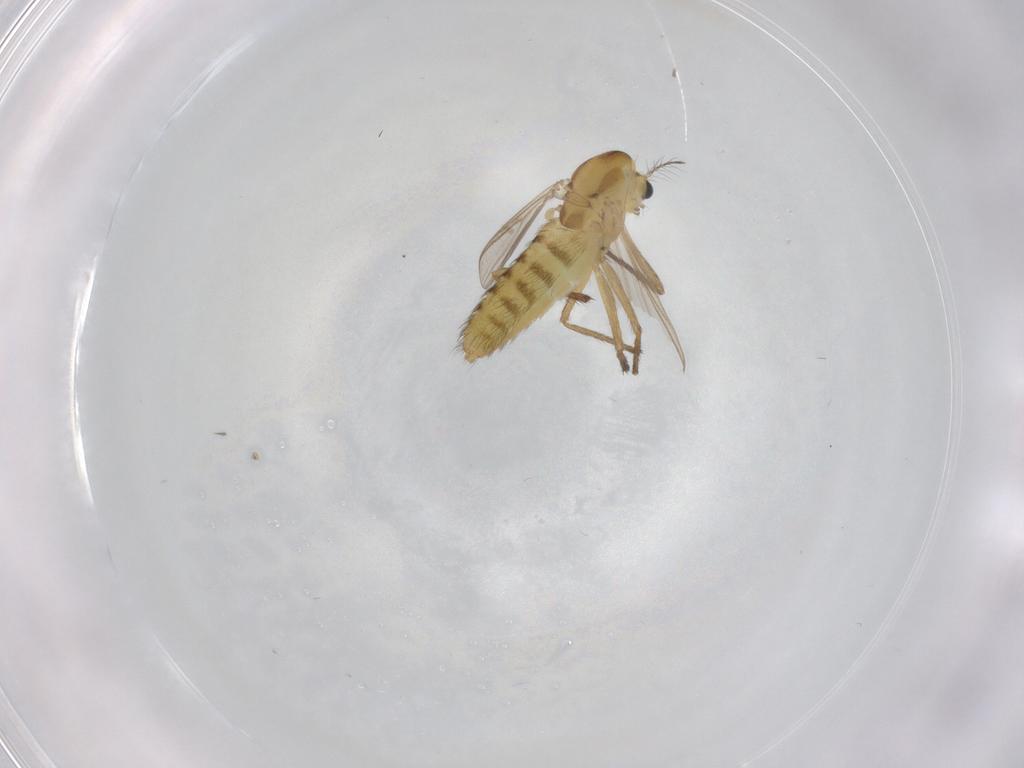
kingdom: Animalia
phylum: Arthropoda
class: Insecta
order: Diptera
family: Chironomidae
